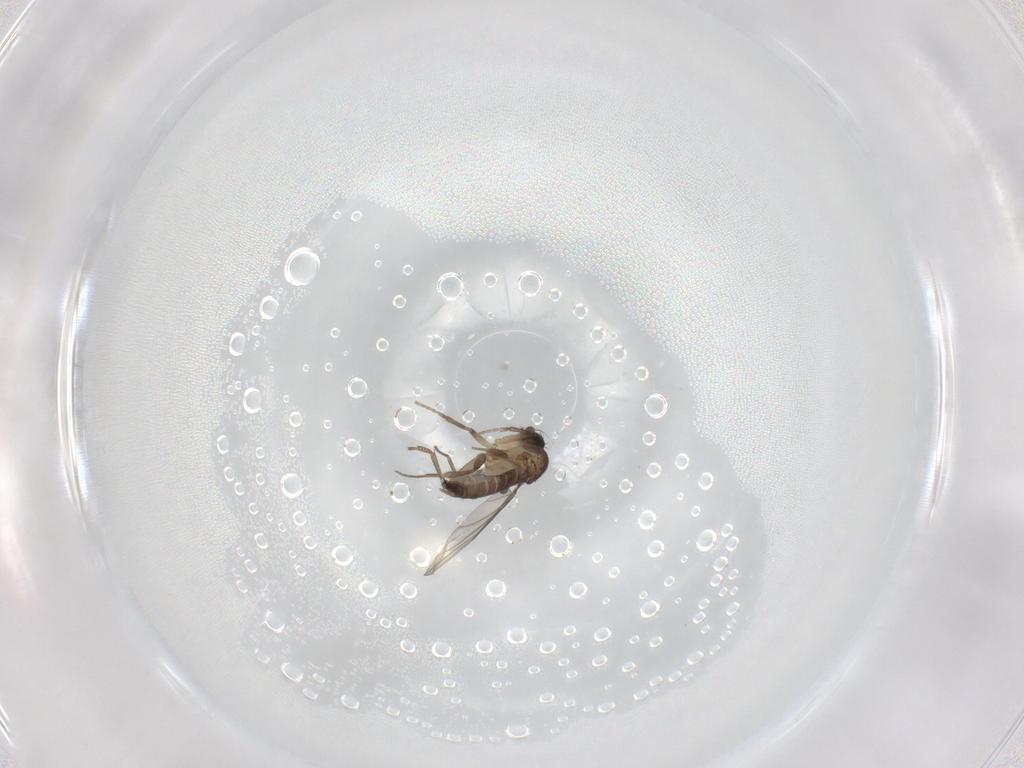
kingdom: Animalia
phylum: Arthropoda
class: Insecta
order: Diptera
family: Phoridae
